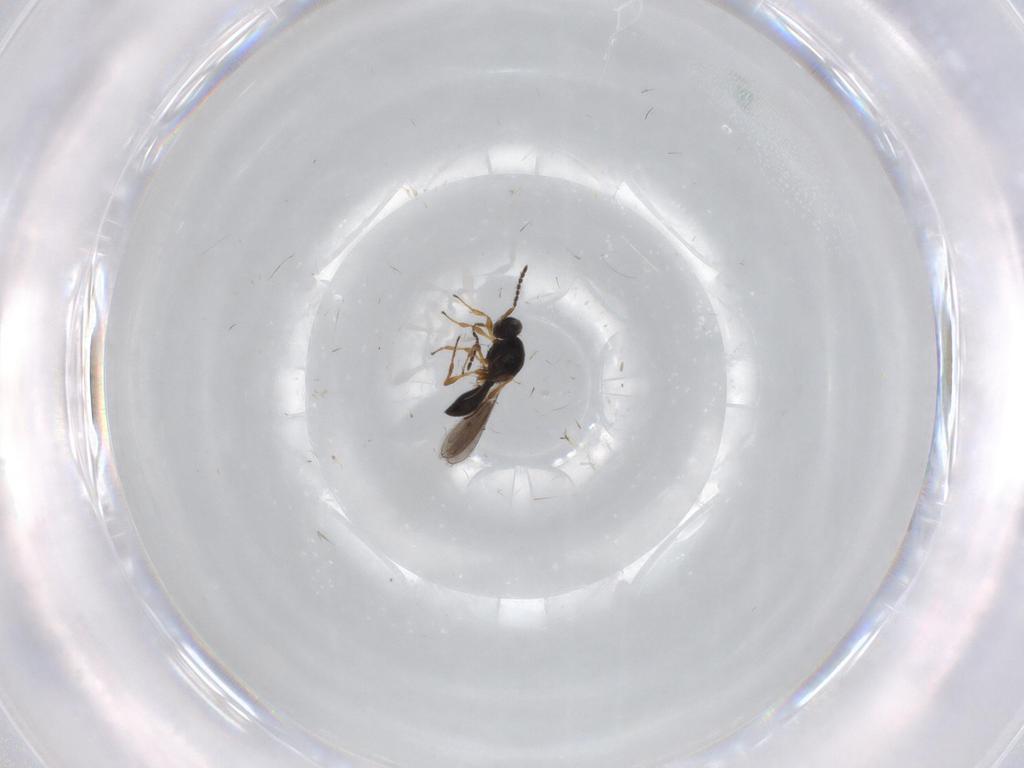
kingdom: Animalia
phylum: Arthropoda
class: Insecta
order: Hymenoptera
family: Platygastridae
